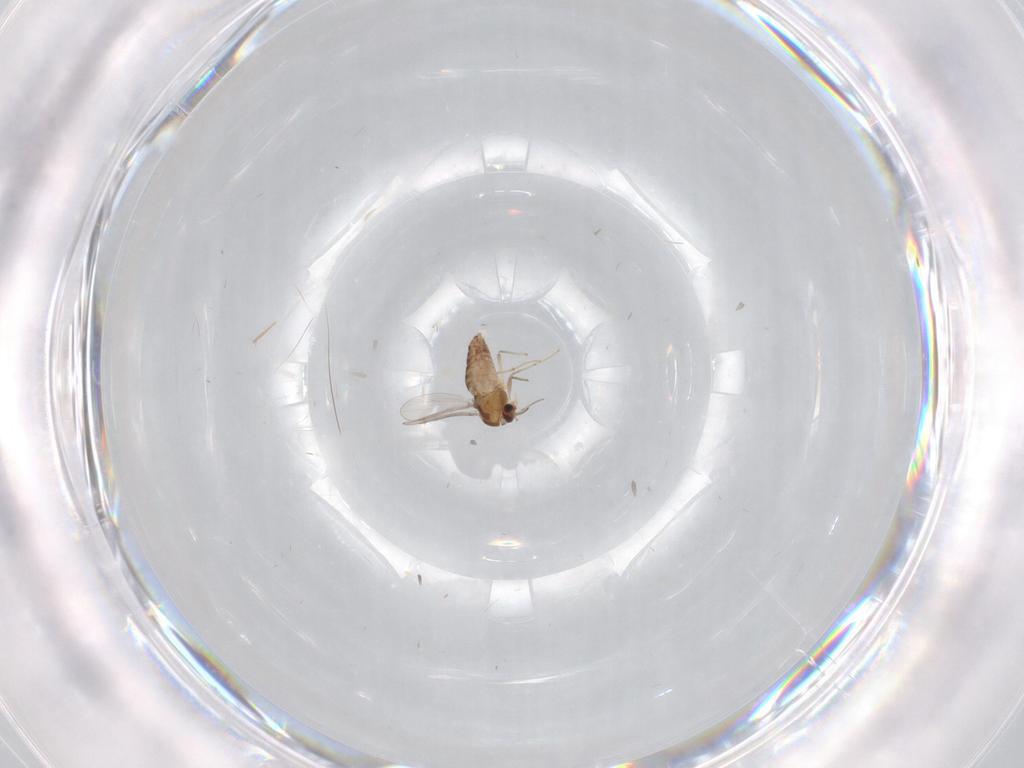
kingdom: Animalia
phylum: Arthropoda
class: Insecta
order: Diptera
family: Chironomidae
